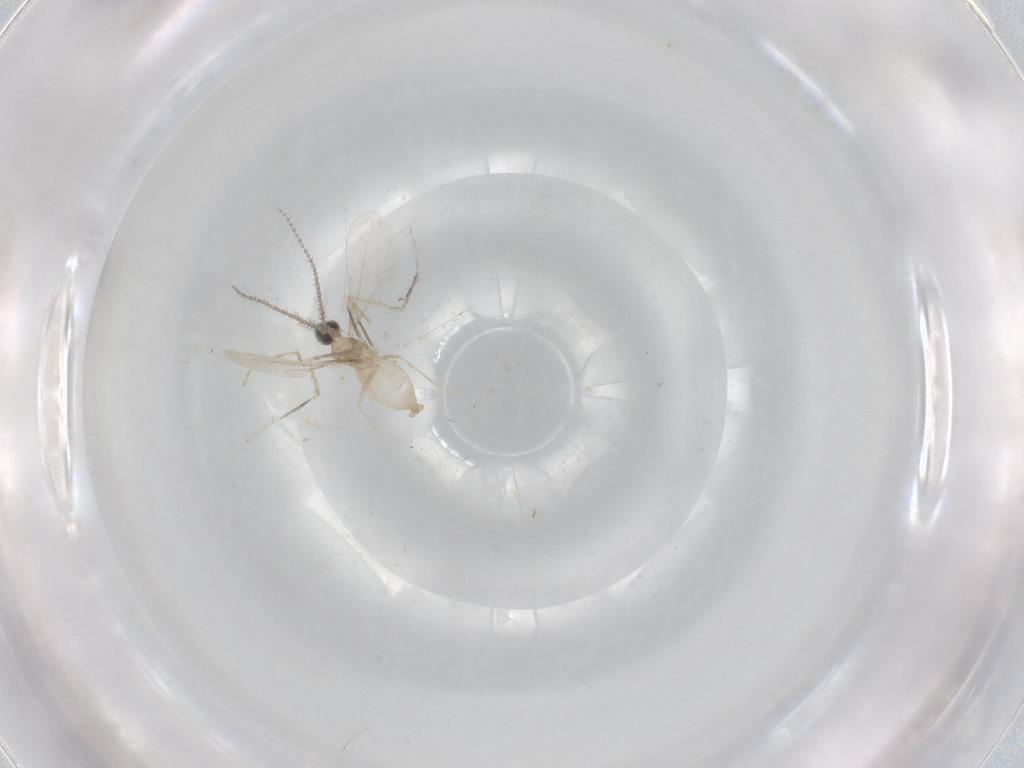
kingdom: Animalia
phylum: Arthropoda
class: Insecta
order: Diptera
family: Cecidomyiidae
